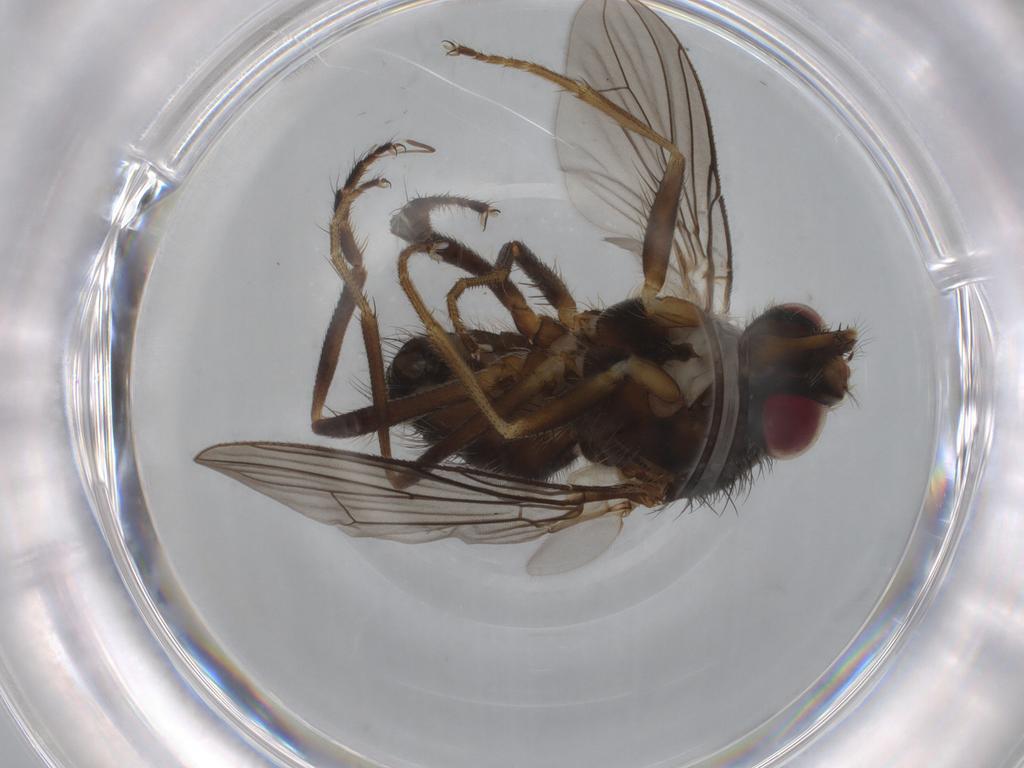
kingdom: Animalia
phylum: Arthropoda
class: Insecta
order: Diptera
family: Cecidomyiidae
